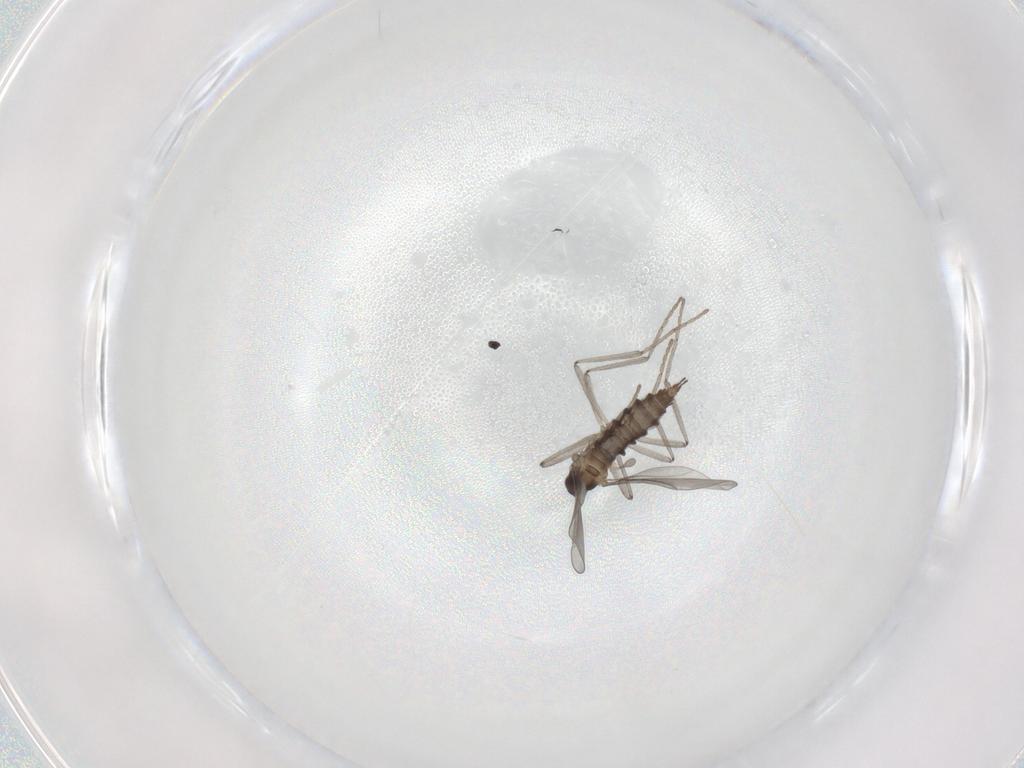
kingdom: Animalia
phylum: Arthropoda
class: Insecta
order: Diptera
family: Cecidomyiidae
